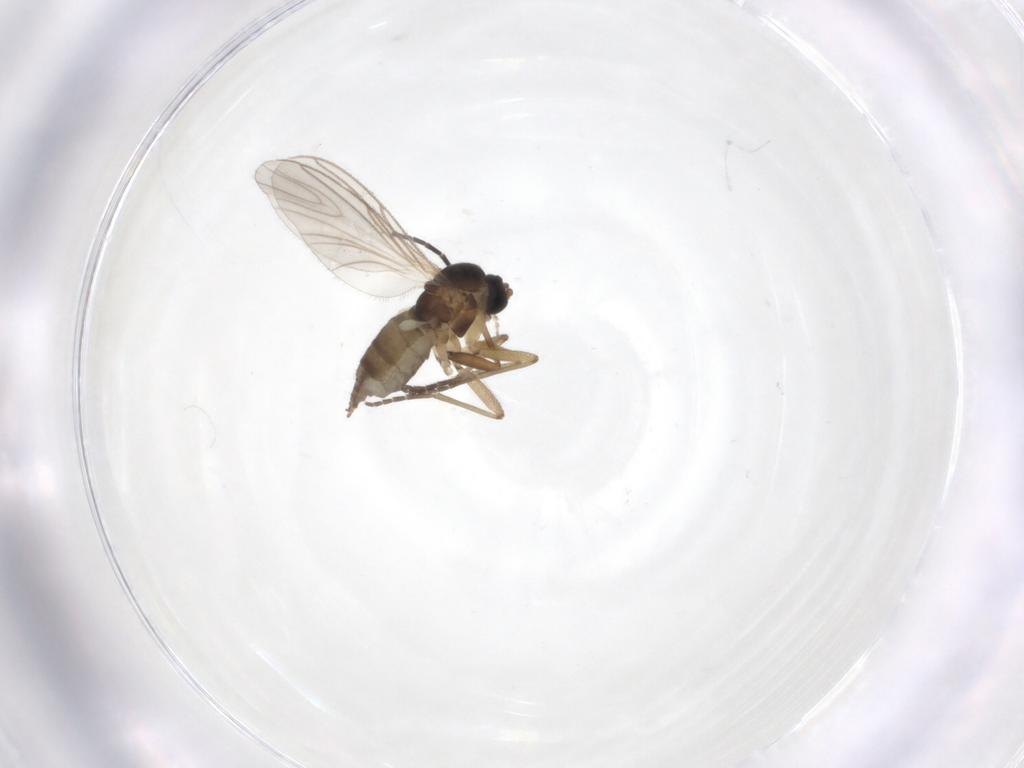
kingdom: Animalia
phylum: Arthropoda
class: Insecta
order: Diptera
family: Sciaridae
